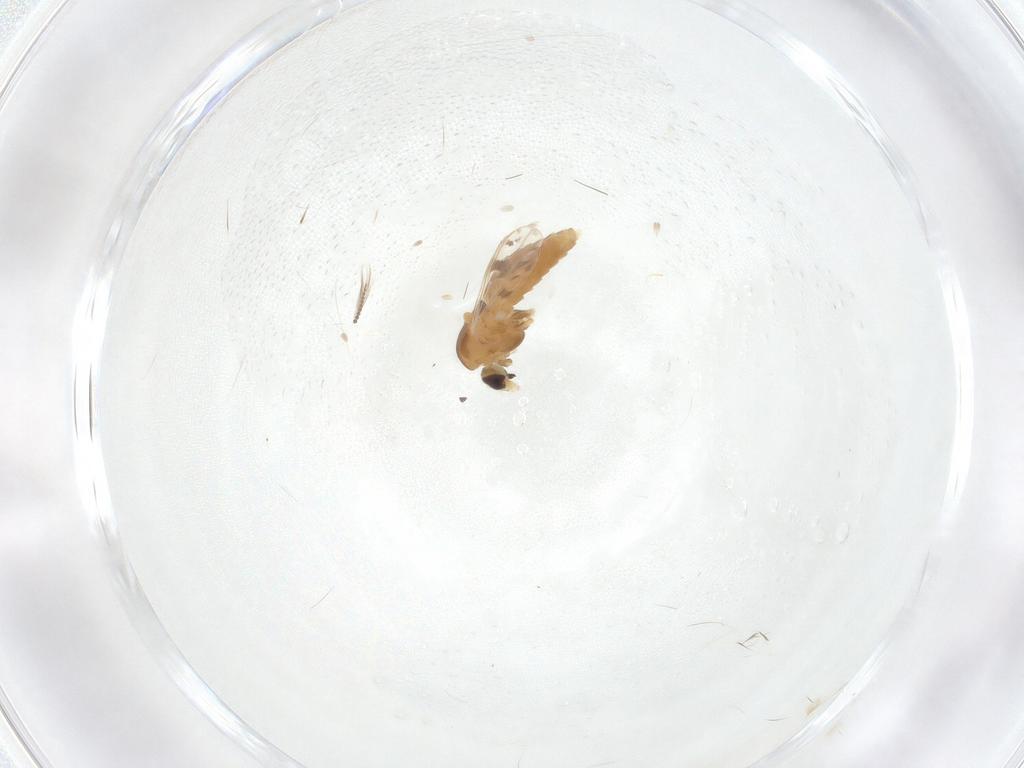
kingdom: Animalia
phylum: Arthropoda
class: Insecta
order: Diptera
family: Chironomidae
